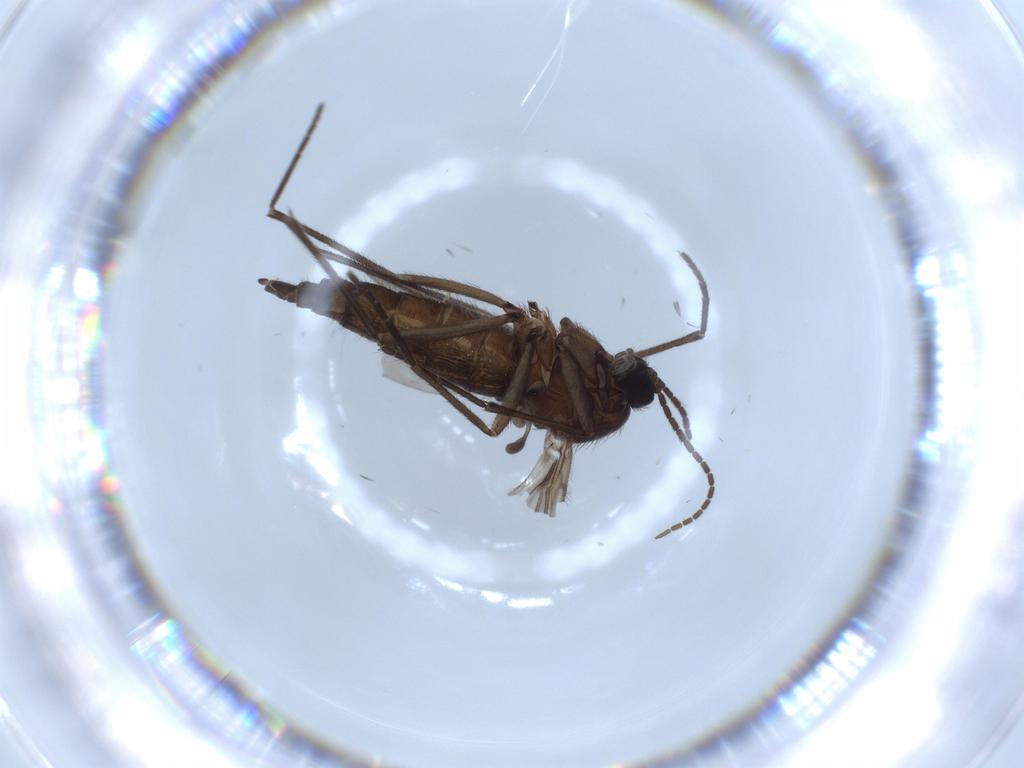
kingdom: Animalia
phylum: Arthropoda
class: Insecta
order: Diptera
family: Sciaridae
